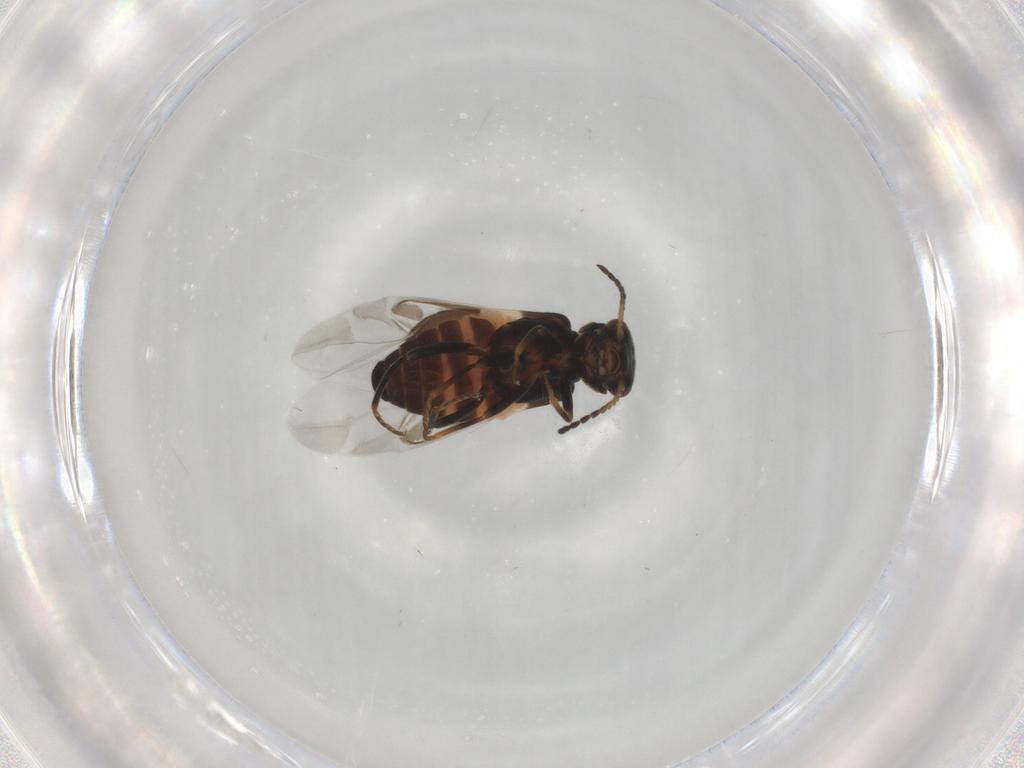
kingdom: Animalia
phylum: Arthropoda
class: Insecta
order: Coleoptera
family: Melyridae
